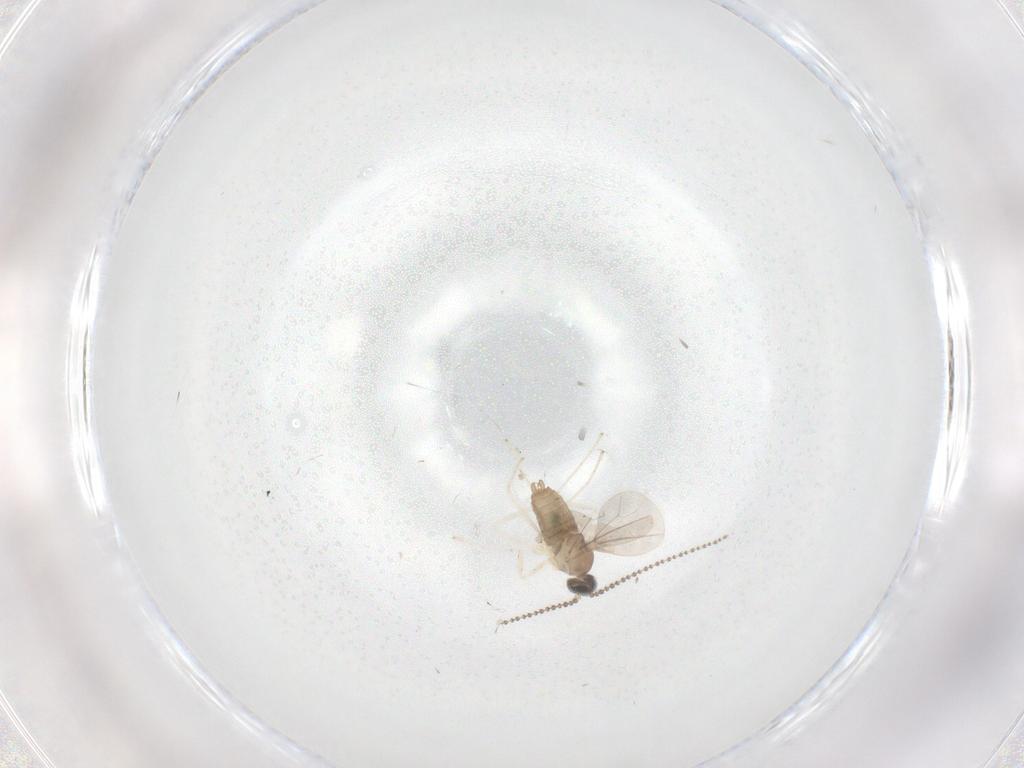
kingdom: Animalia
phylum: Arthropoda
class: Insecta
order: Diptera
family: Cecidomyiidae
